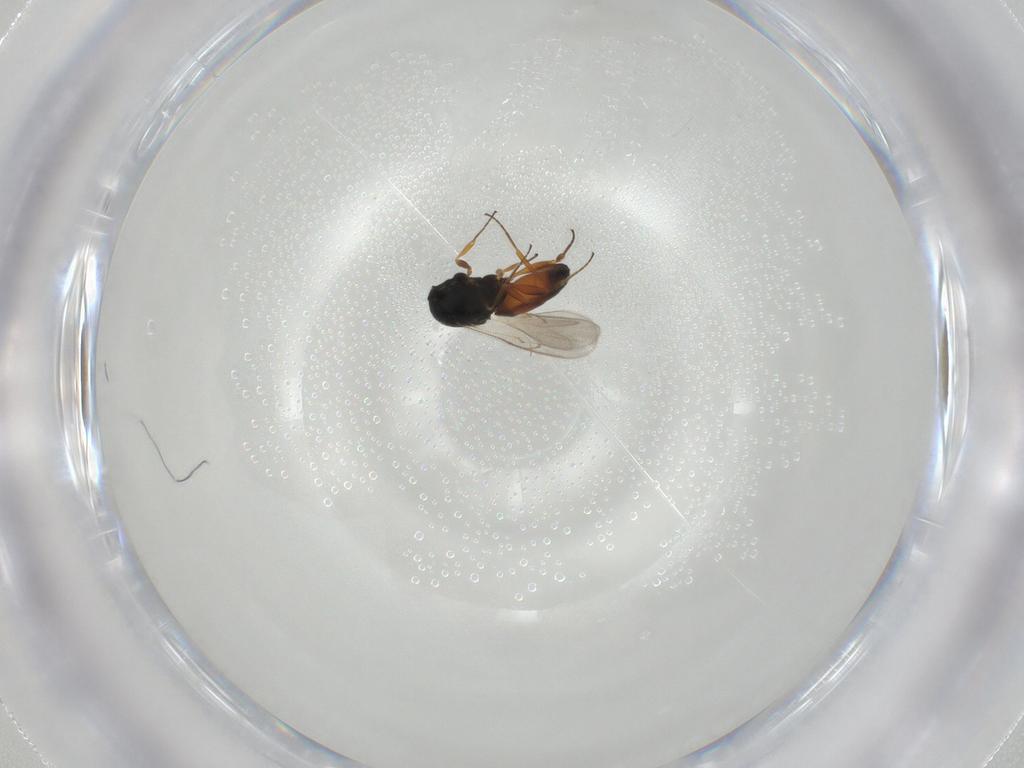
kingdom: Animalia
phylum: Arthropoda
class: Insecta
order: Hymenoptera
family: Scelionidae
